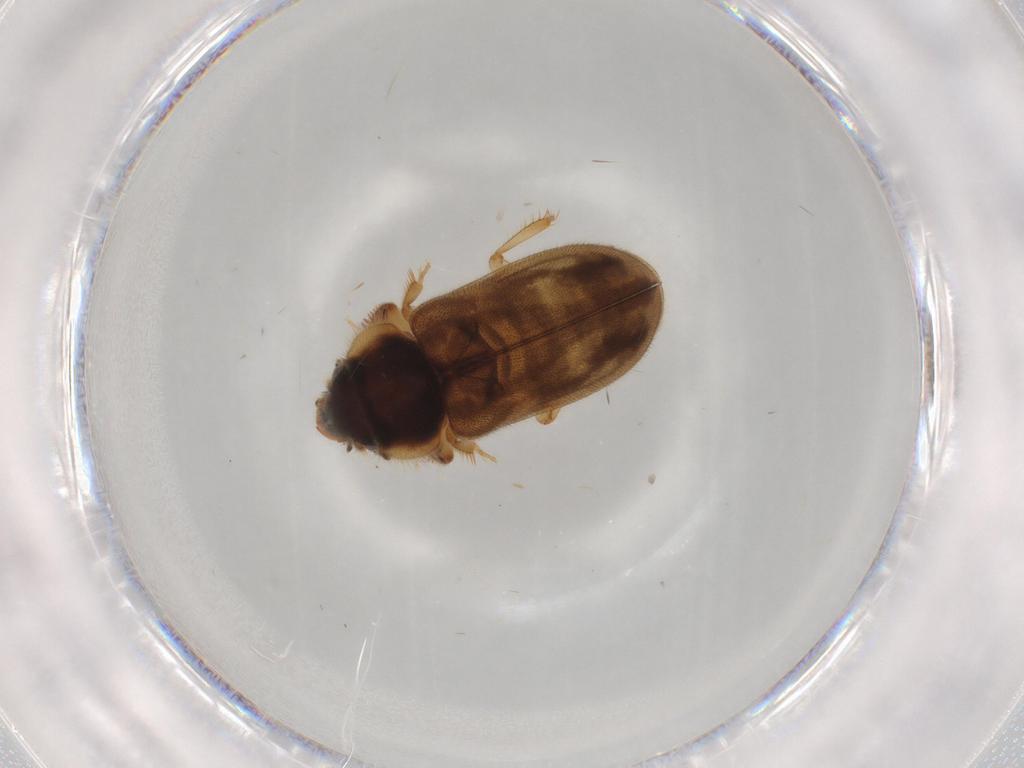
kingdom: Animalia
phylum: Arthropoda
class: Insecta
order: Coleoptera
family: Heteroceridae
